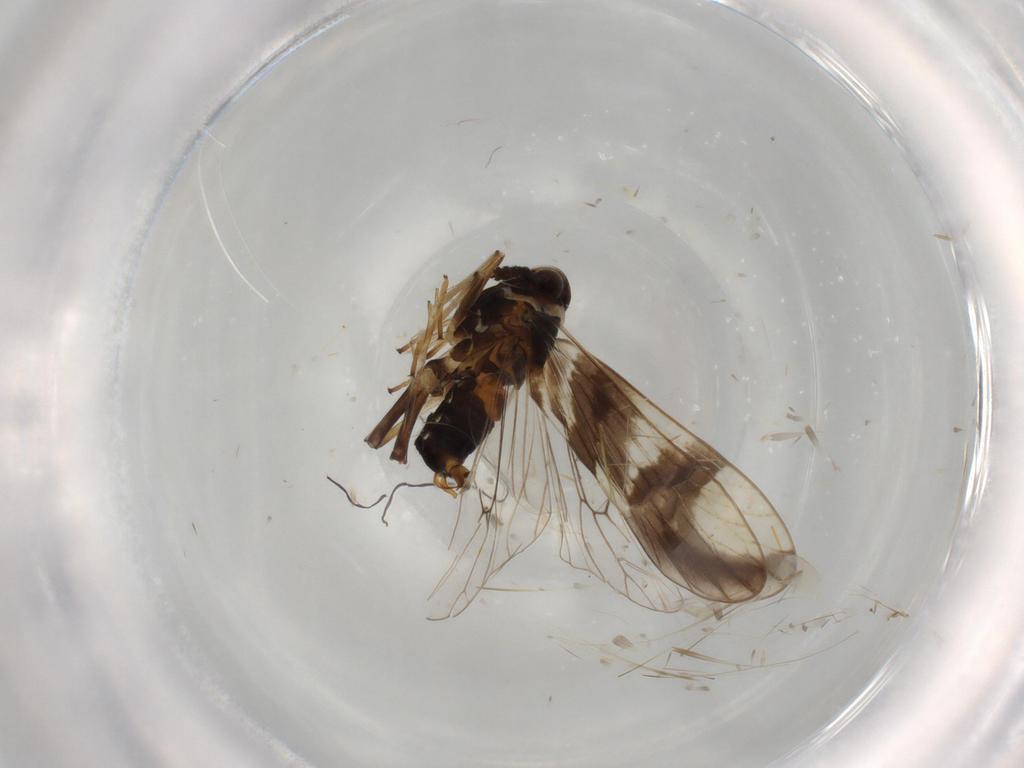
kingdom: Animalia
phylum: Arthropoda
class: Insecta
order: Hemiptera
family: Delphacidae
